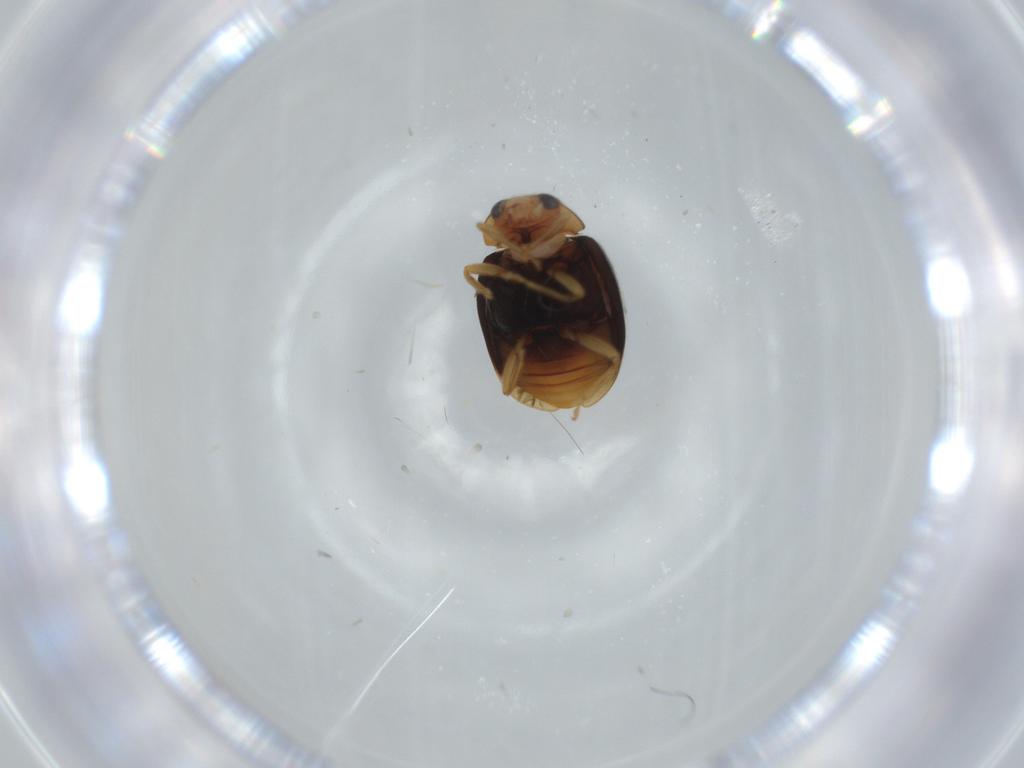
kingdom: Animalia
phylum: Arthropoda
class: Insecta
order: Coleoptera
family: Coccinellidae
